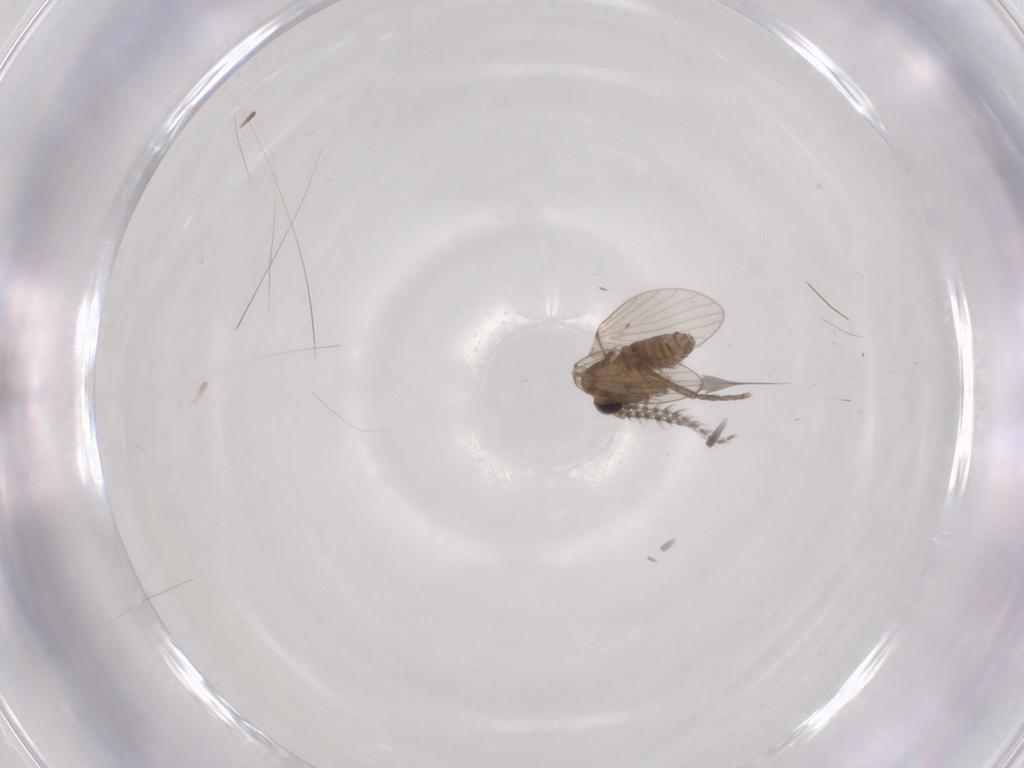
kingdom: Animalia
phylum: Arthropoda
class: Insecta
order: Diptera
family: Psychodidae
